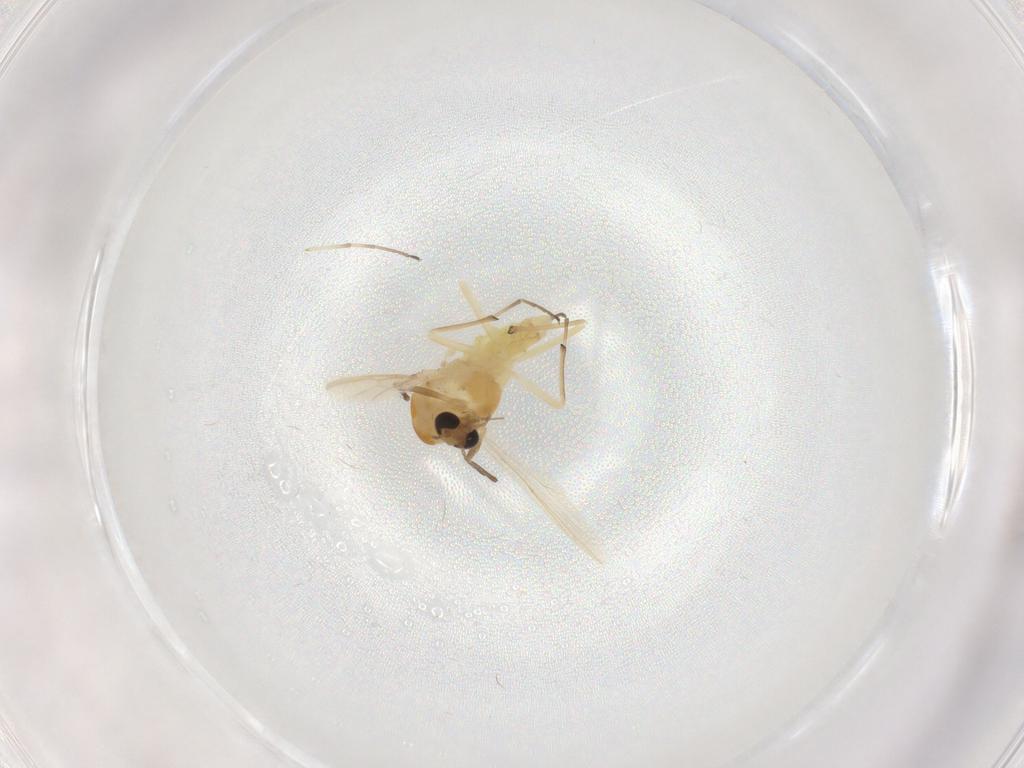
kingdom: Animalia
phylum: Arthropoda
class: Insecta
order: Diptera
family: Chironomidae
